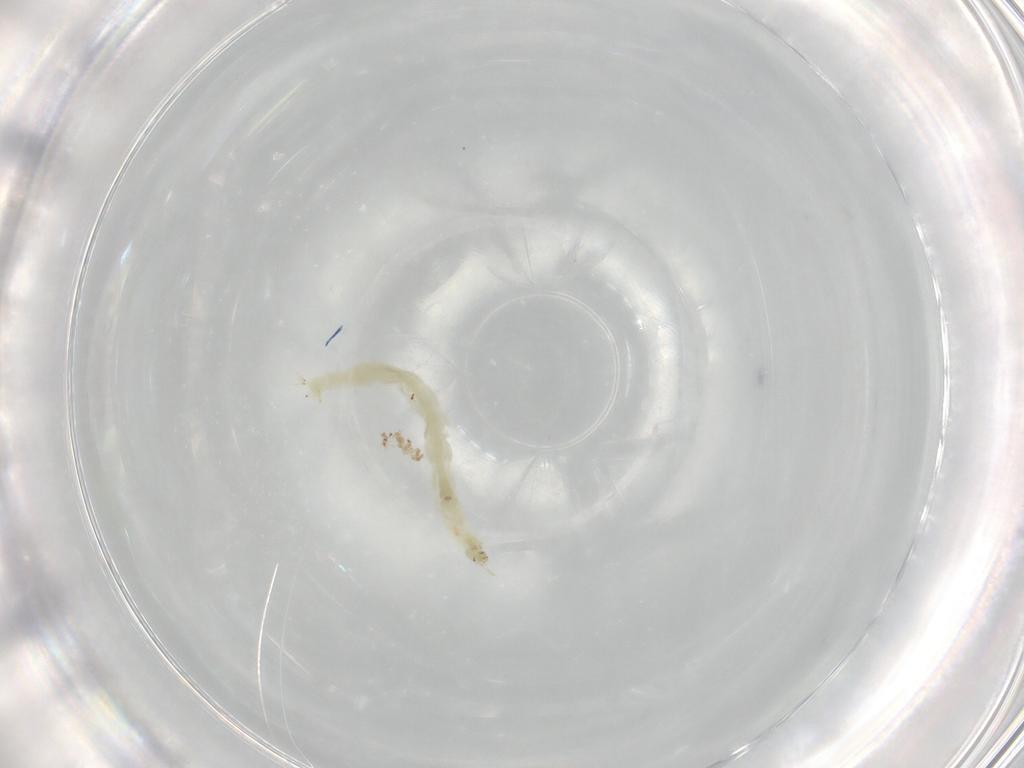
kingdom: Animalia
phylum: Arthropoda
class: Insecta
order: Diptera
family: Chironomidae
